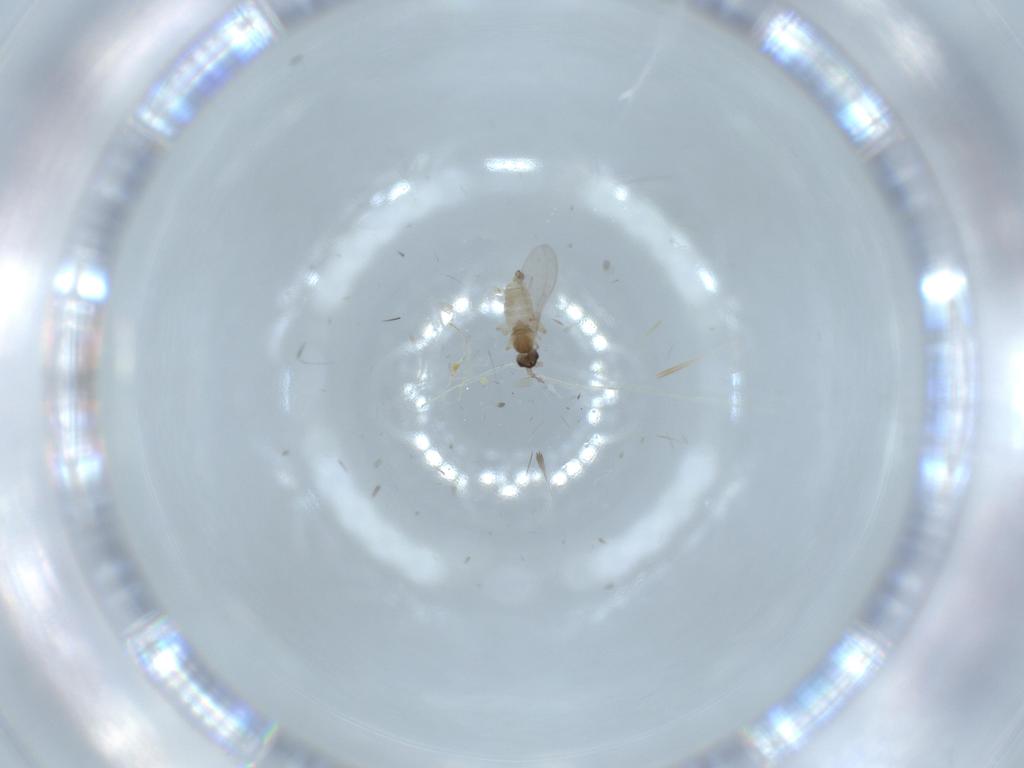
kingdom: Animalia
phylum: Arthropoda
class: Insecta
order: Diptera
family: Cecidomyiidae
